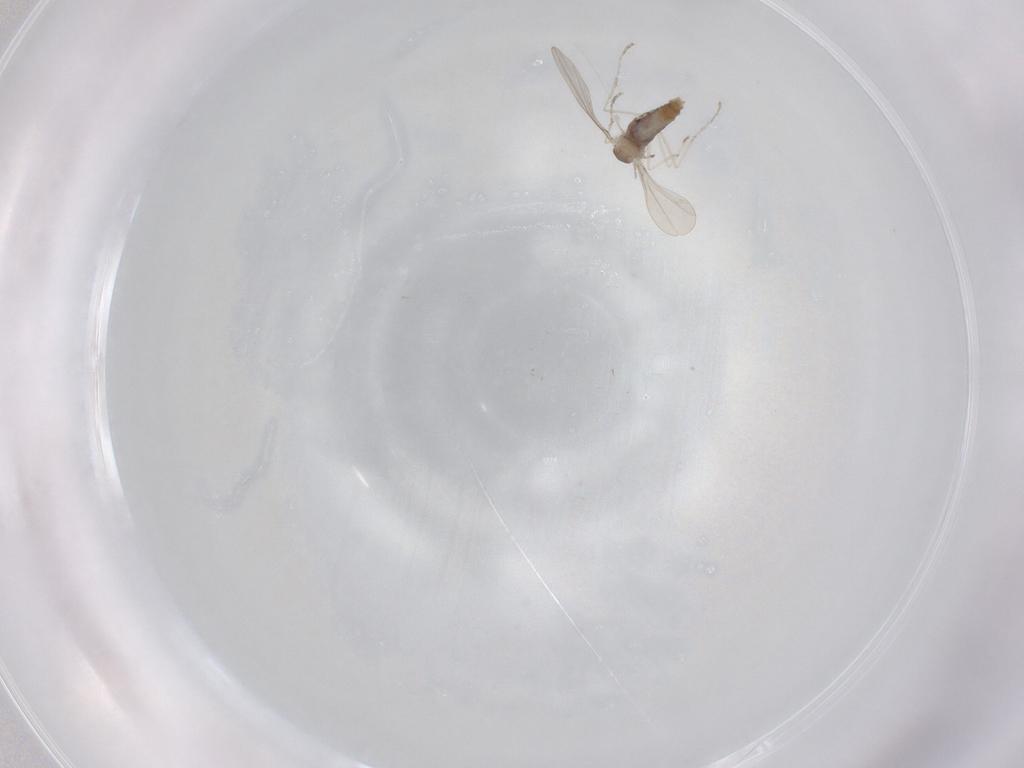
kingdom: Animalia
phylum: Arthropoda
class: Insecta
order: Diptera
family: Cecidomyiidae
